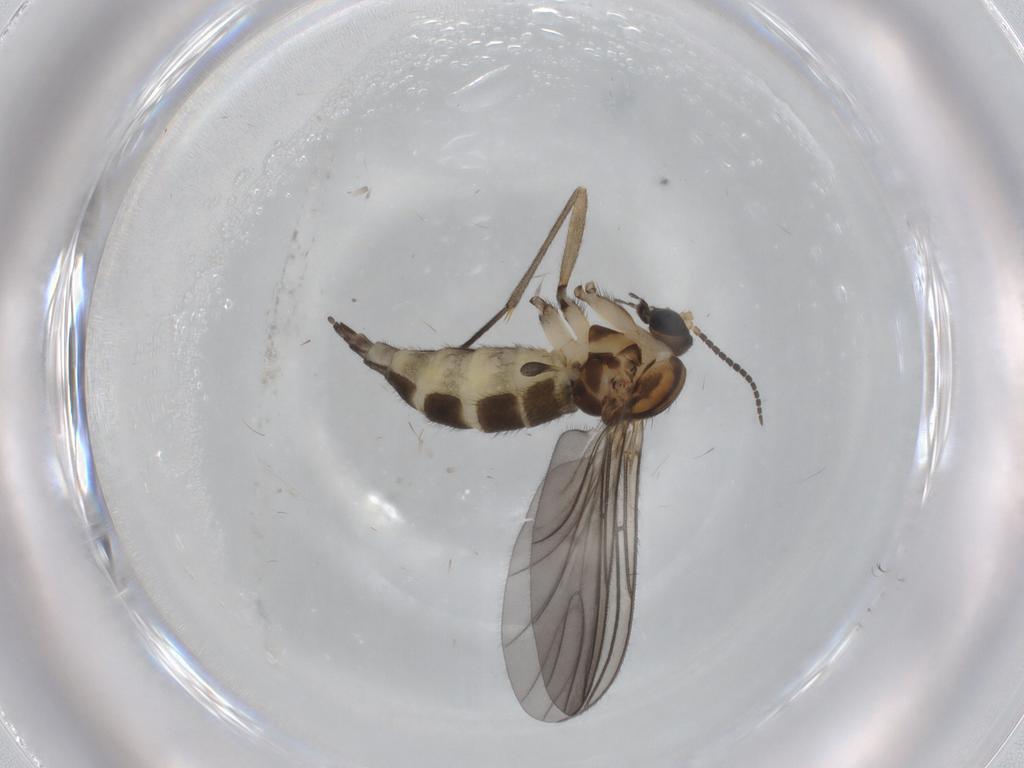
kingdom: Animalia
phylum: Arthropoda
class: Insecta
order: Diptera
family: Sciaridae
